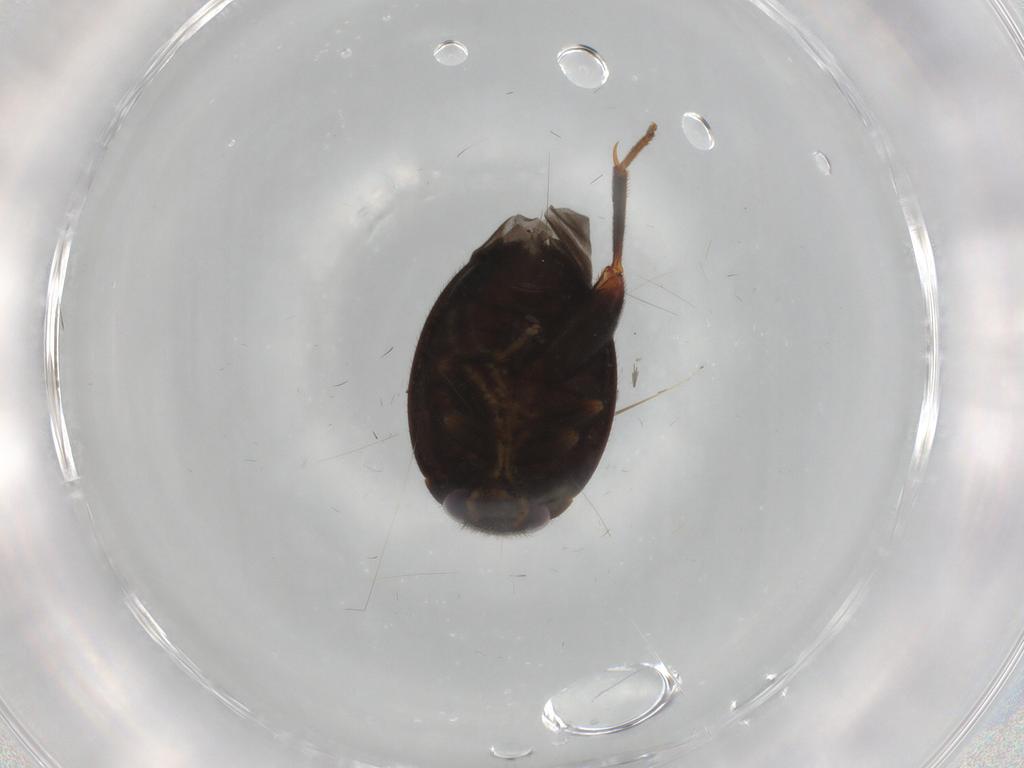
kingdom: Animalia
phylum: Arthropoda
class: Insecta
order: Coleoptera
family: Scirtidae
